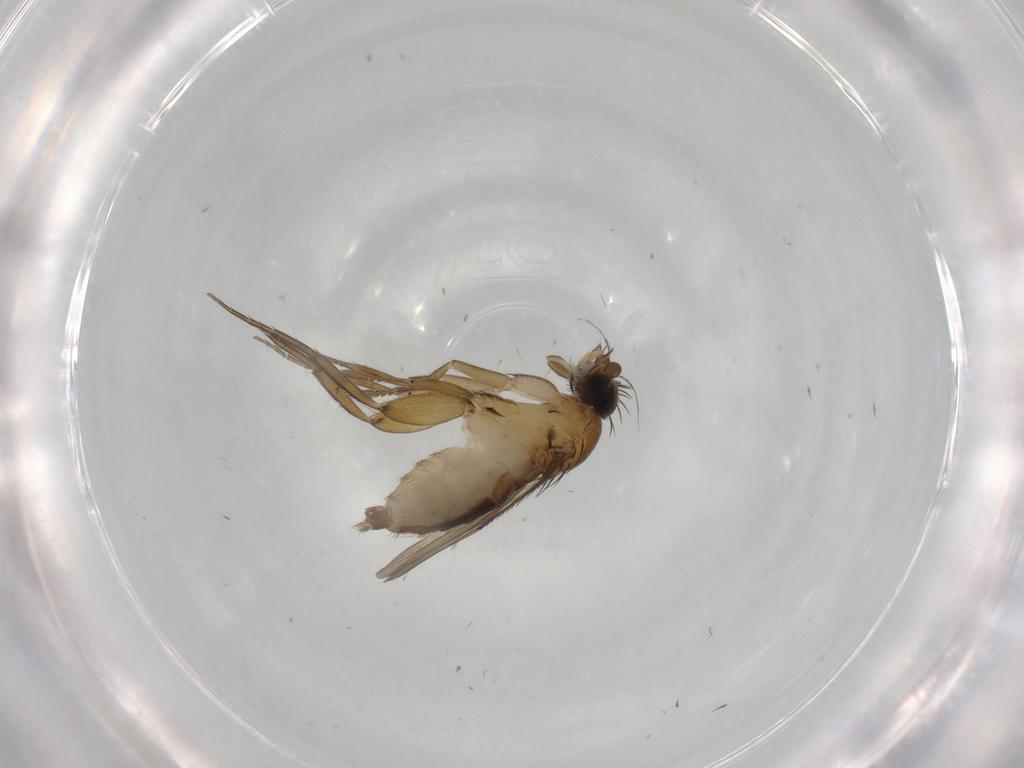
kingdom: Animalia
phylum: Arthropoda
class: Insecta
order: Diptera
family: Phoridae
